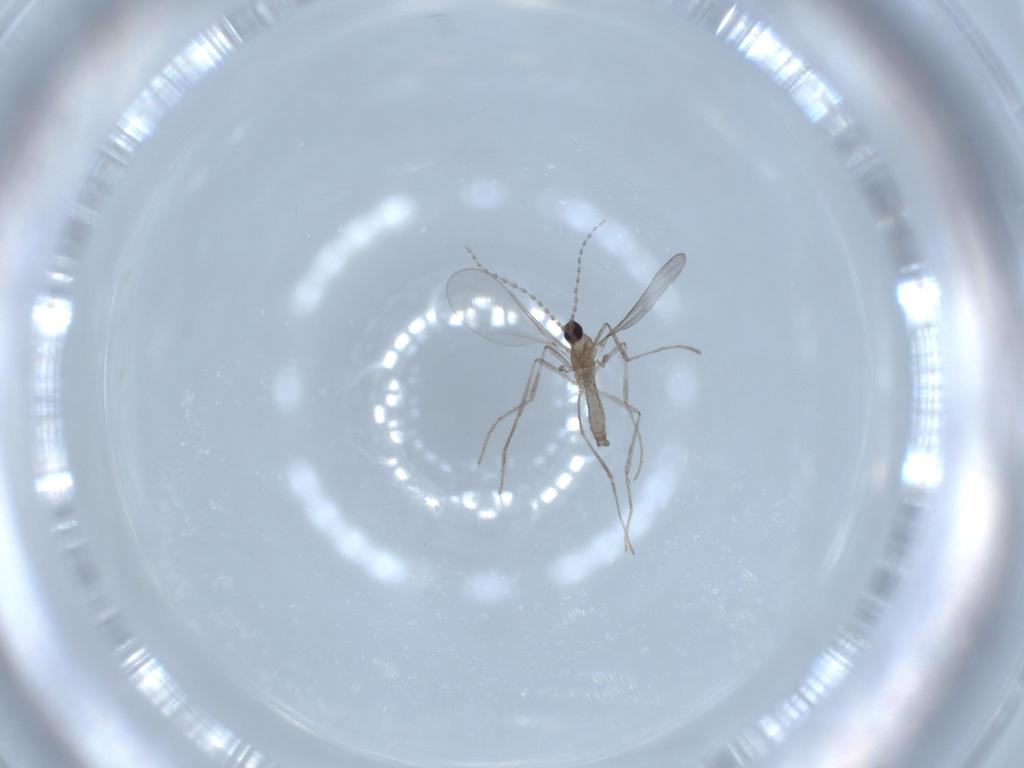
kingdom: Animalia
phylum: Arthropoda
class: Insecta
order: Diptera
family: Cecidomyiidae
